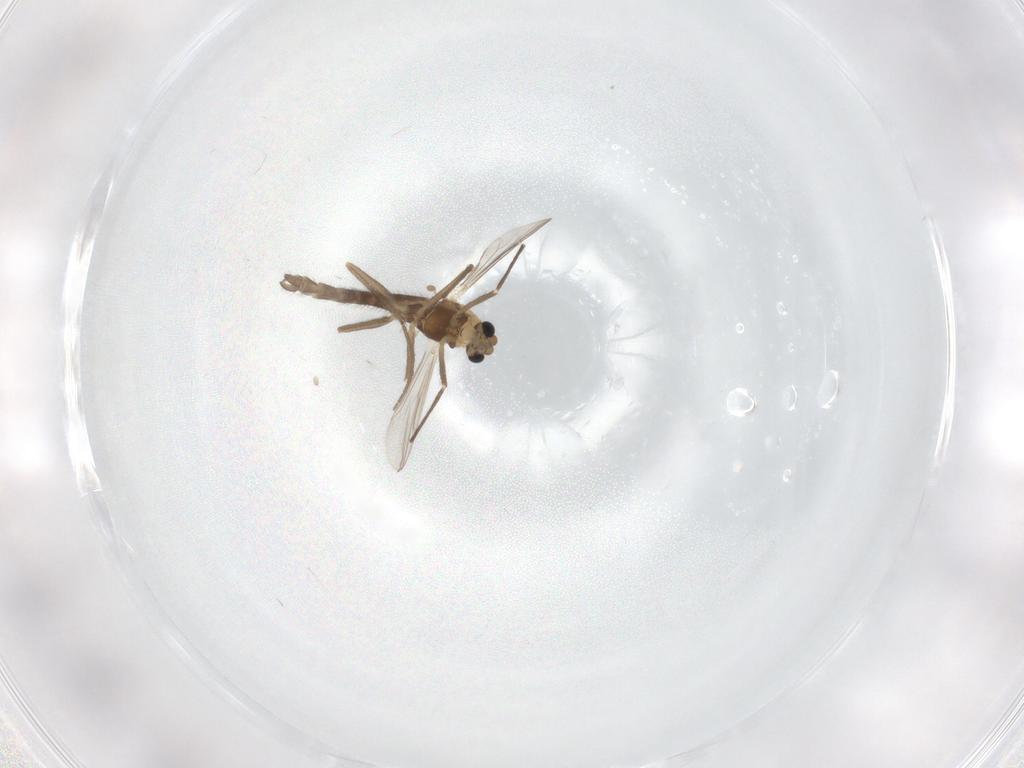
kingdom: Animalia
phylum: Arthropoda
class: Insecta
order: Diptera
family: Chironomidae
